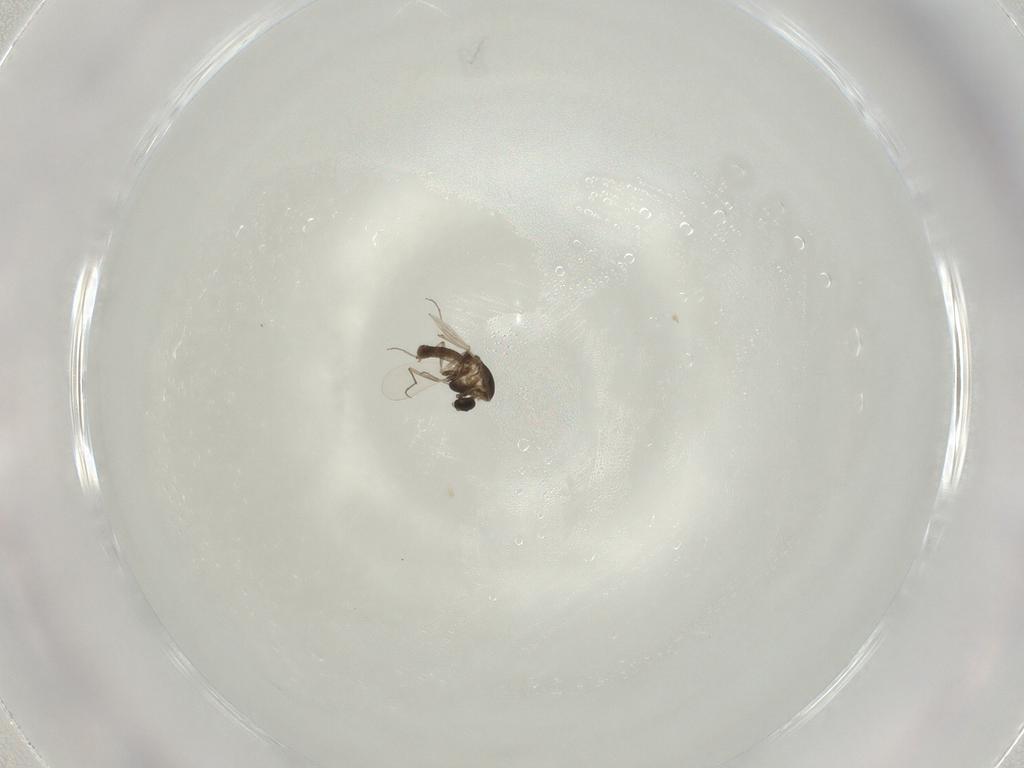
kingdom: Animalia
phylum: Arthropoda
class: Insecta
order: Diptera
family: Chironomidae
